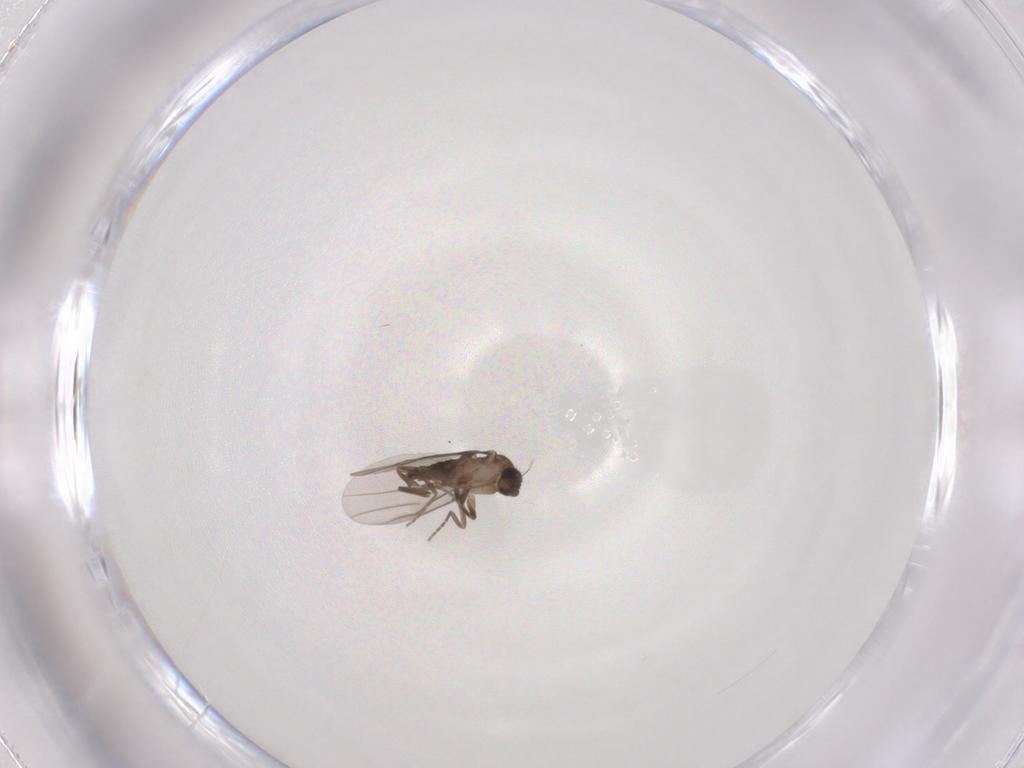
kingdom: Animalia
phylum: Arthropoda
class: Insecta
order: Diptera
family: Phoridae
